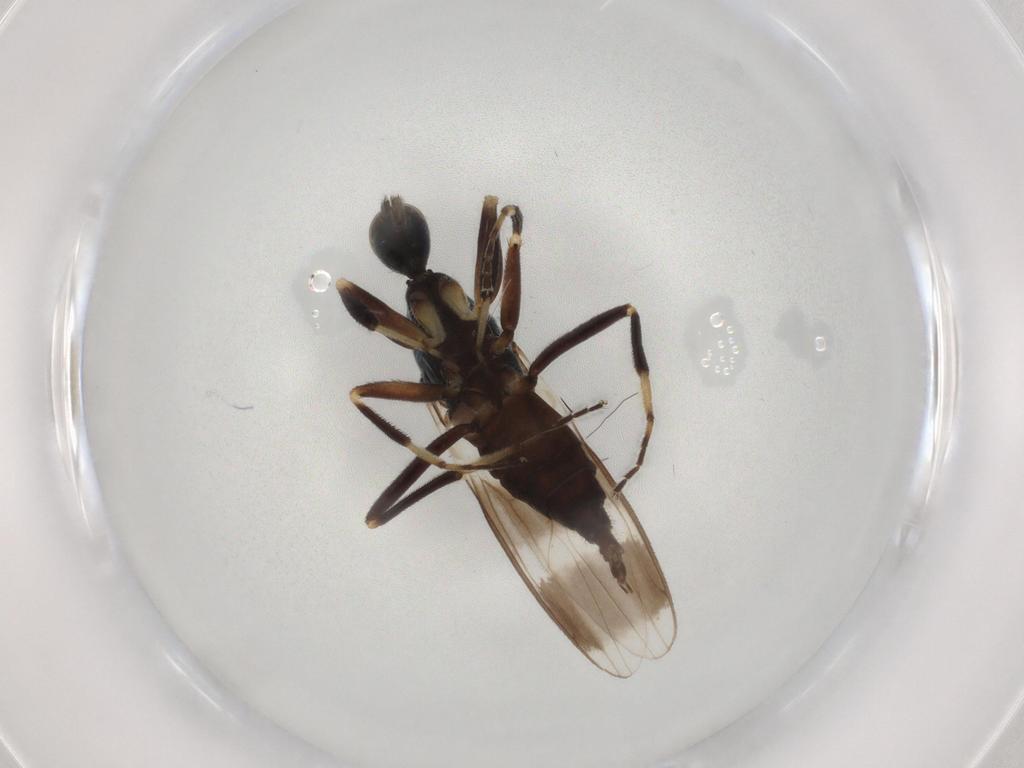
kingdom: Animalia
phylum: Arthropoda
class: Insecta
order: Diptera
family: Hybotidae
